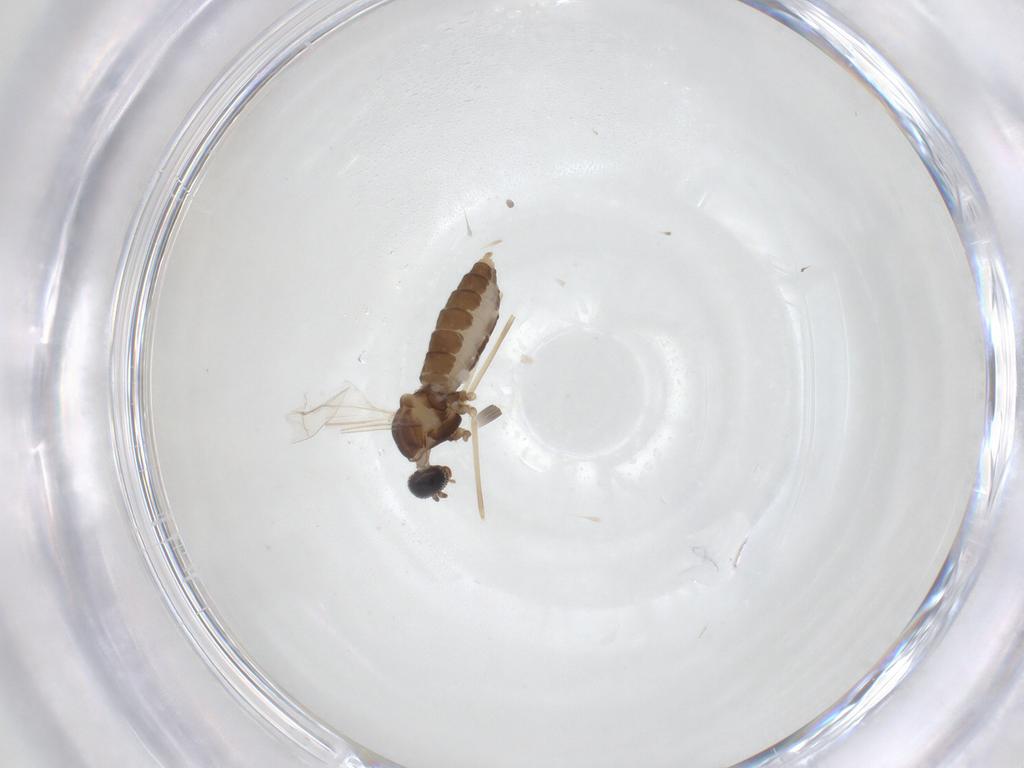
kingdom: Animalia
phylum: Arthropoda
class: Insecta
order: Diptera
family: Cecidomyiidae
